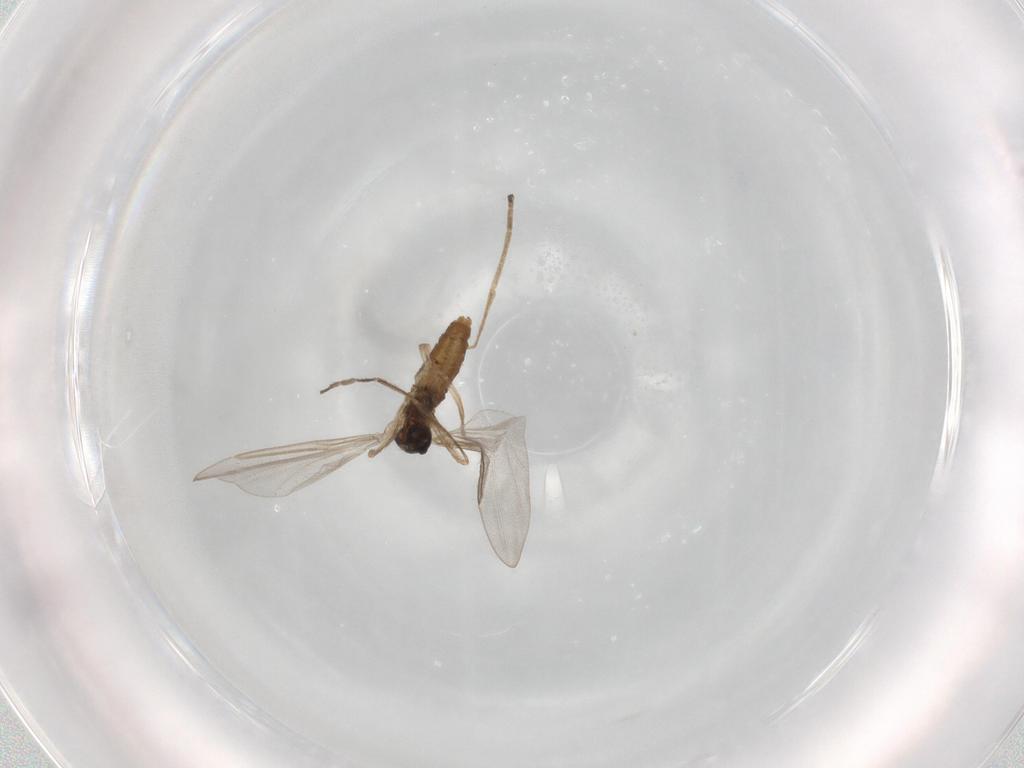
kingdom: Animalia
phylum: Arthropoda
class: Insecta
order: Diptera
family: Cecidomyiidae
